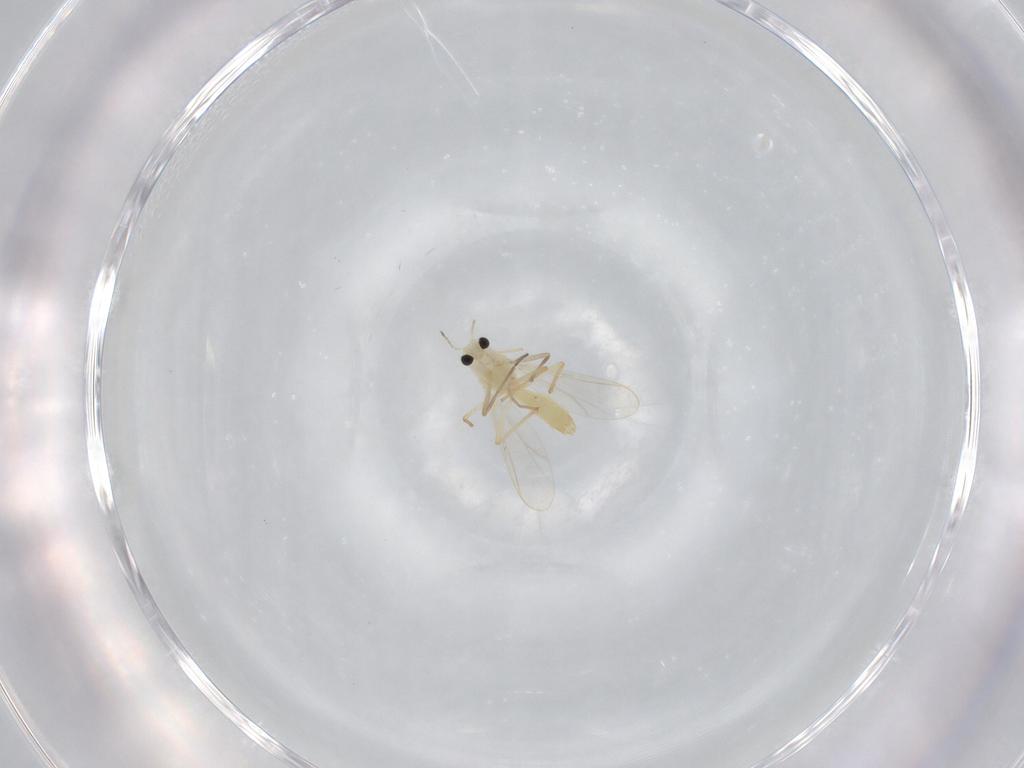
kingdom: Animalia
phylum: Arthropoda
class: Insecta
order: Diptera
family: Chironomidae
